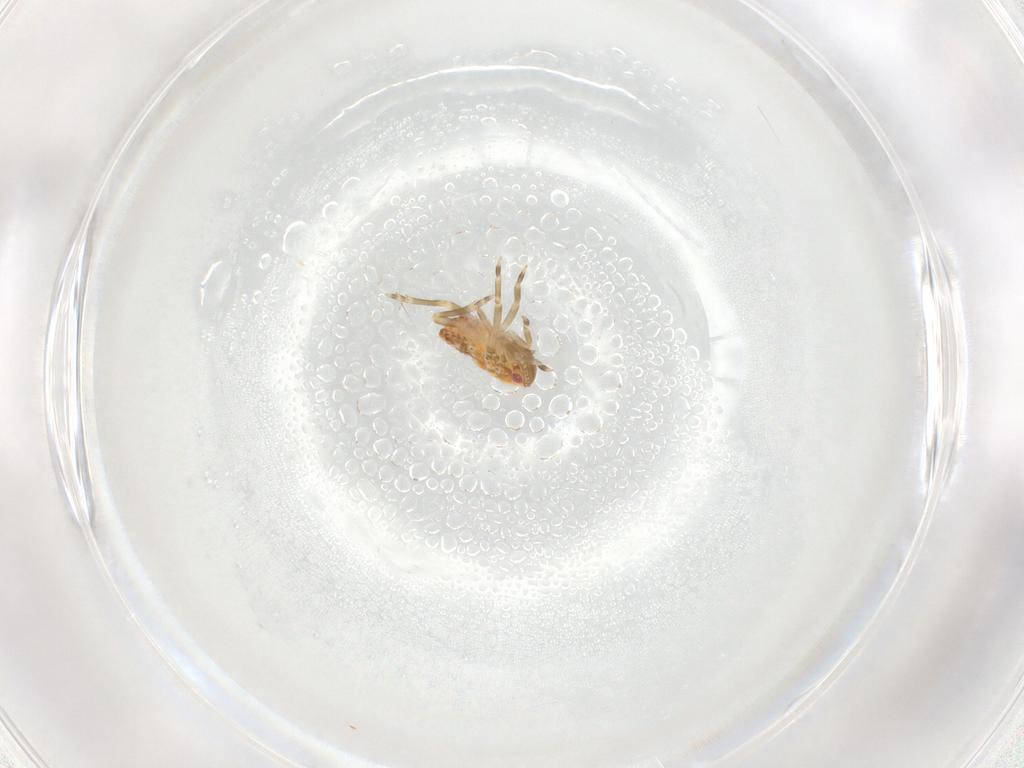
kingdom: Animalia
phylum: Arthropoda
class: Insecta
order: Hemiptera
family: Flatidae
